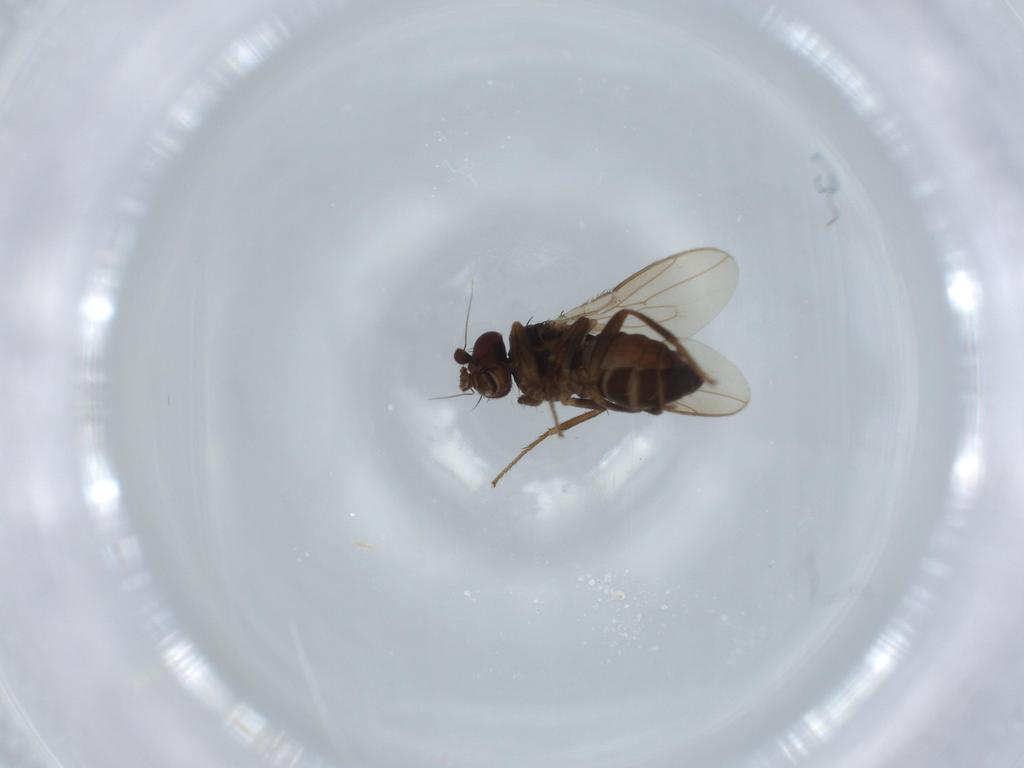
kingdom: Animalia
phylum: Arthropoda
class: Insecta
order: Diptera
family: Sphaeroceridae
